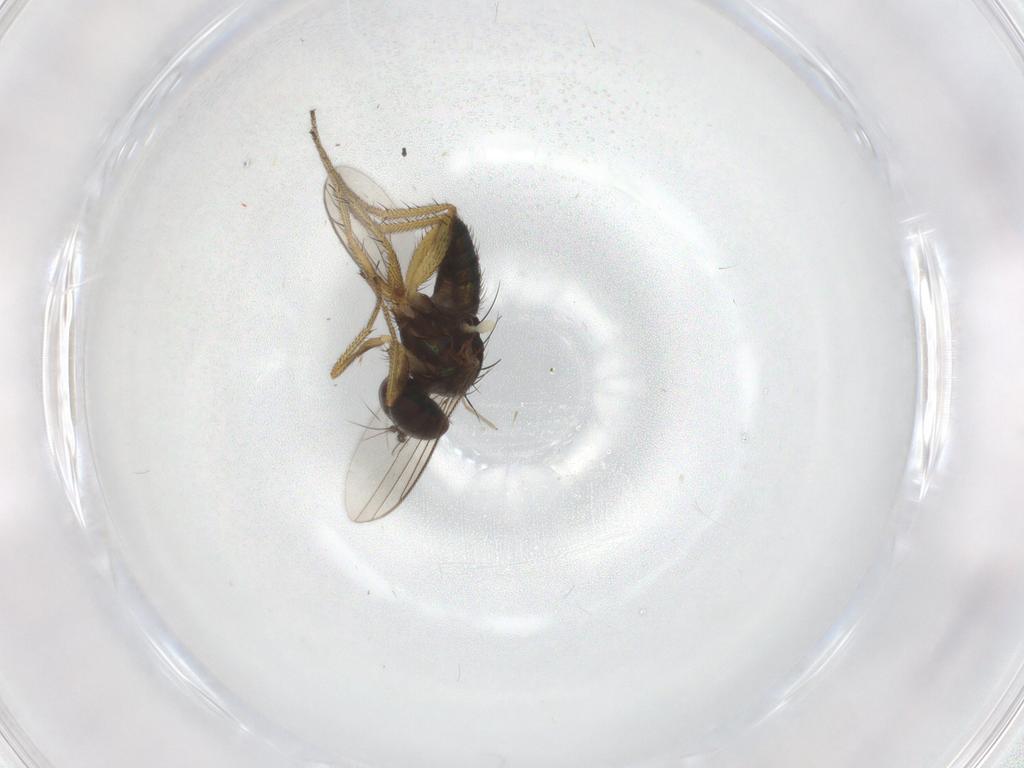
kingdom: Animalia
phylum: Arthropoda
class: Insecta
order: Diptera
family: Dolichopodidae
